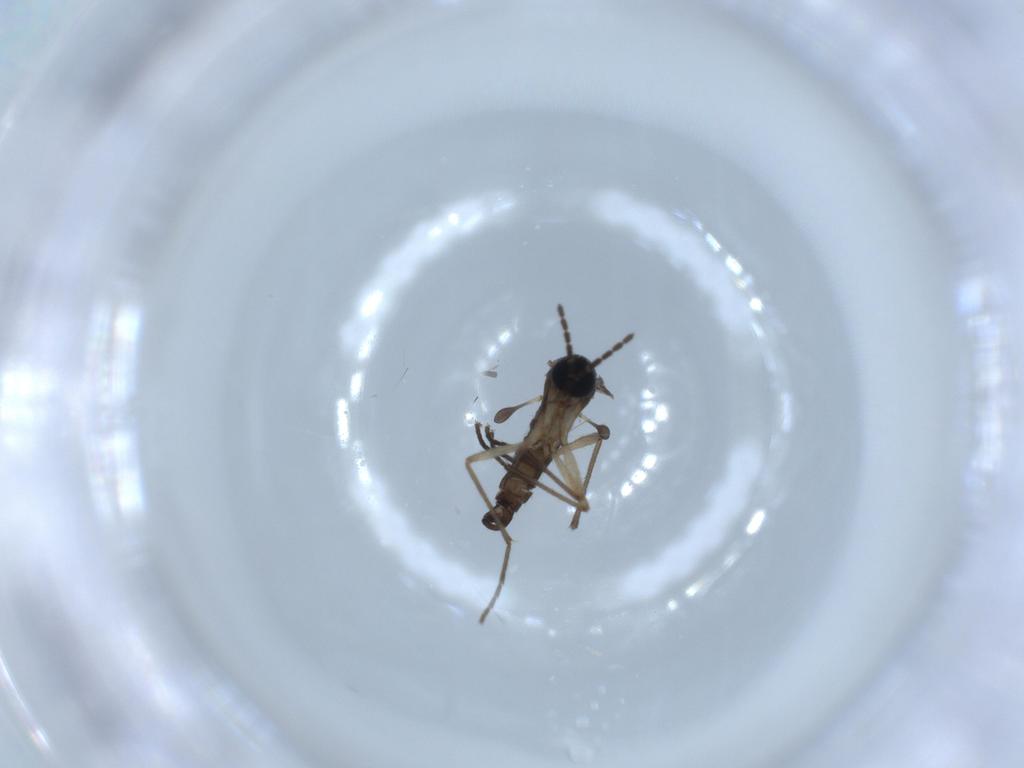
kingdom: Animalia
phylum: Arthropoda
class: Insecta
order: Diptera
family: Sciaridae
